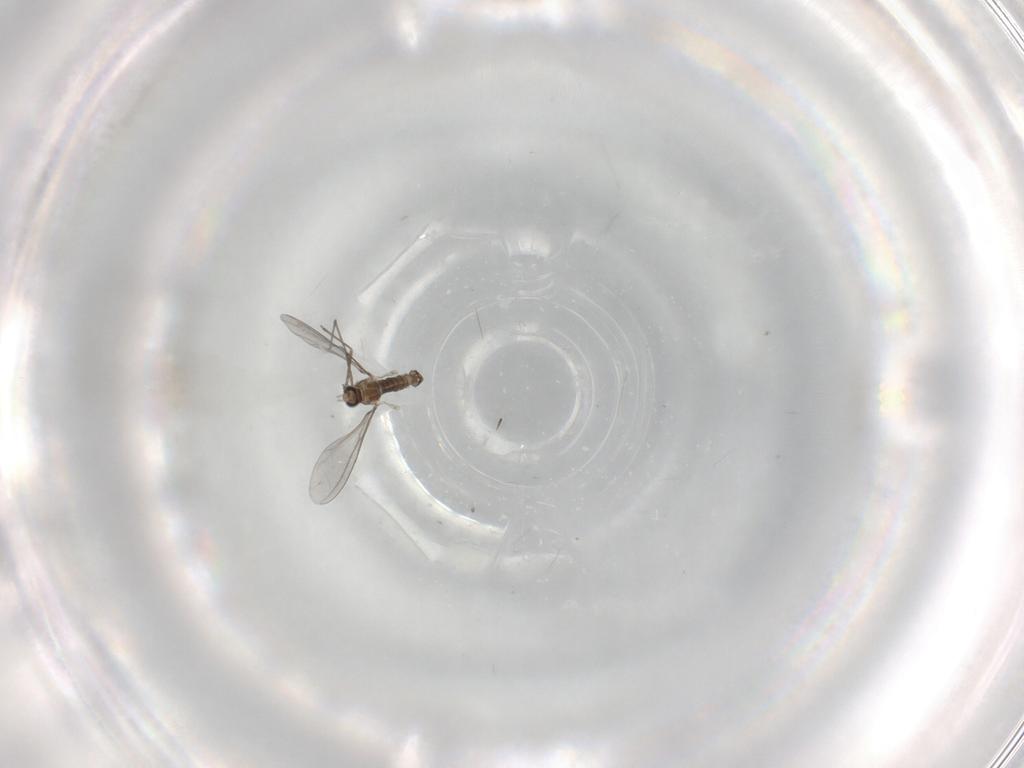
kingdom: Animalia
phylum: Arthropoda
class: Insecta
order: Diptera
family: Cecidomyiidae
